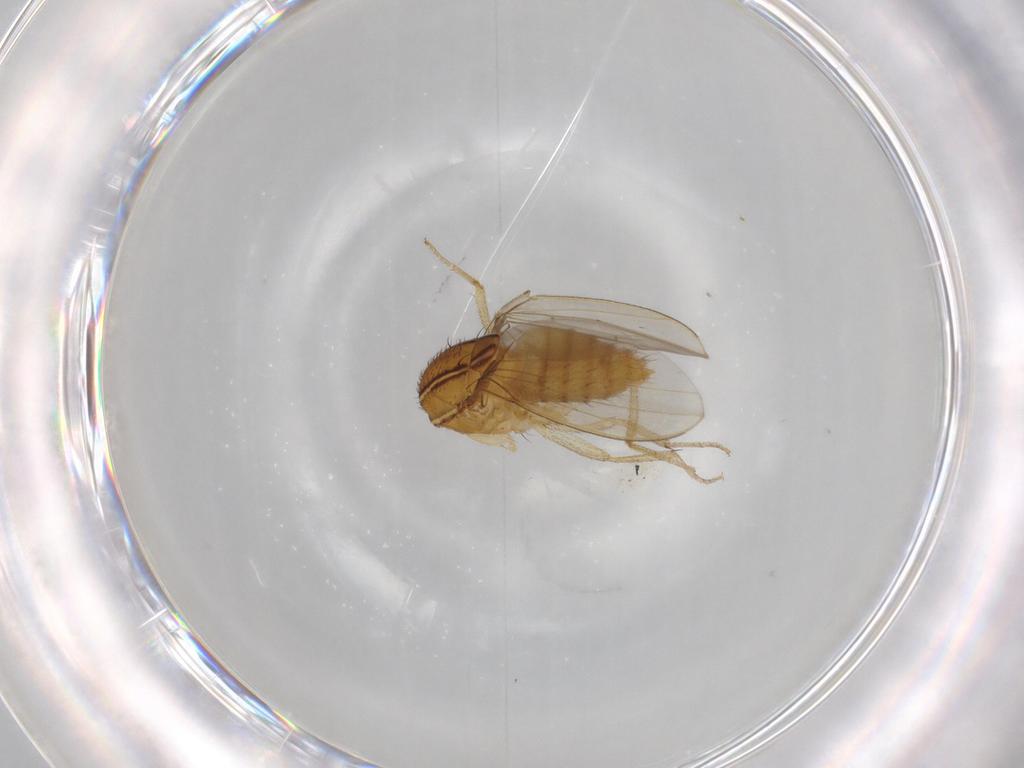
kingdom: Animalia
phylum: Arthropoda
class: Insecta
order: Diptera
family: Drosophilidae
